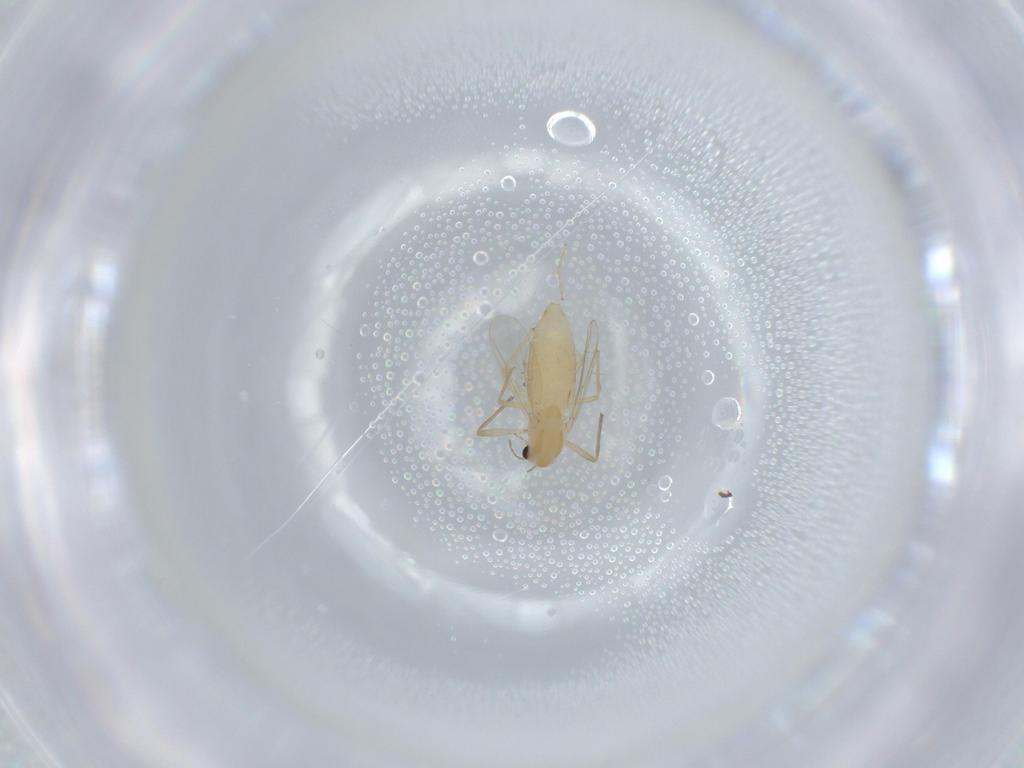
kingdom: Animalia
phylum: Arthropoda
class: Insecta
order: Diptera
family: Chironomidae
